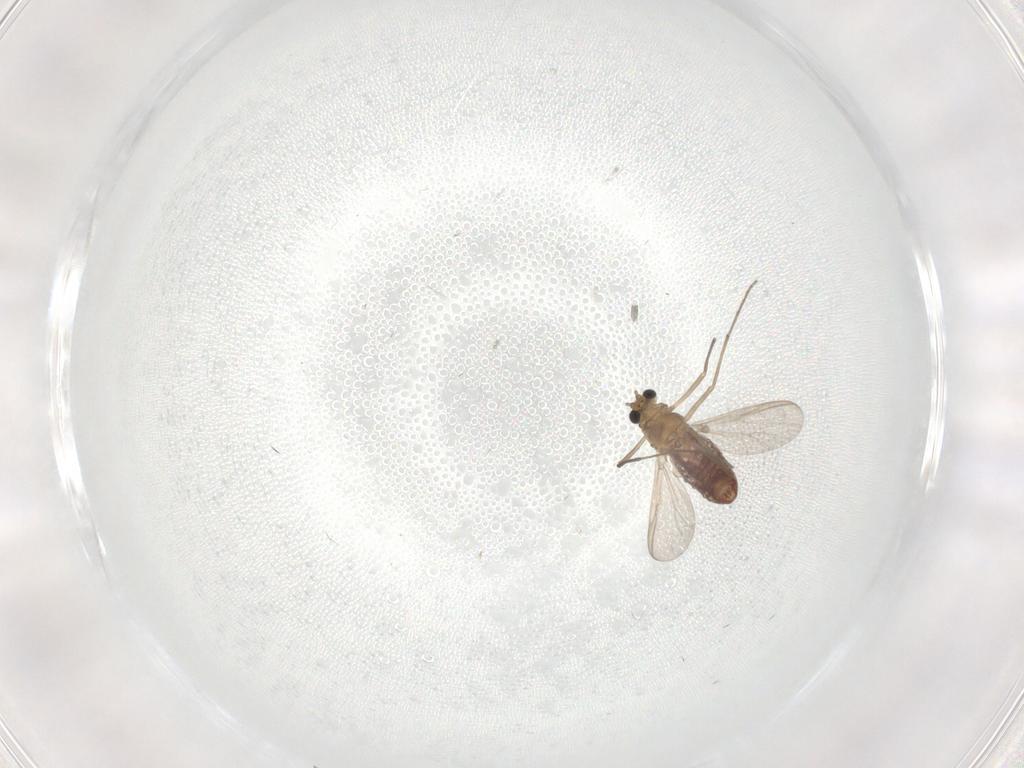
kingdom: Animalia
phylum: Arthropoda
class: Insecta
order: Diptera
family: Chironomidae
